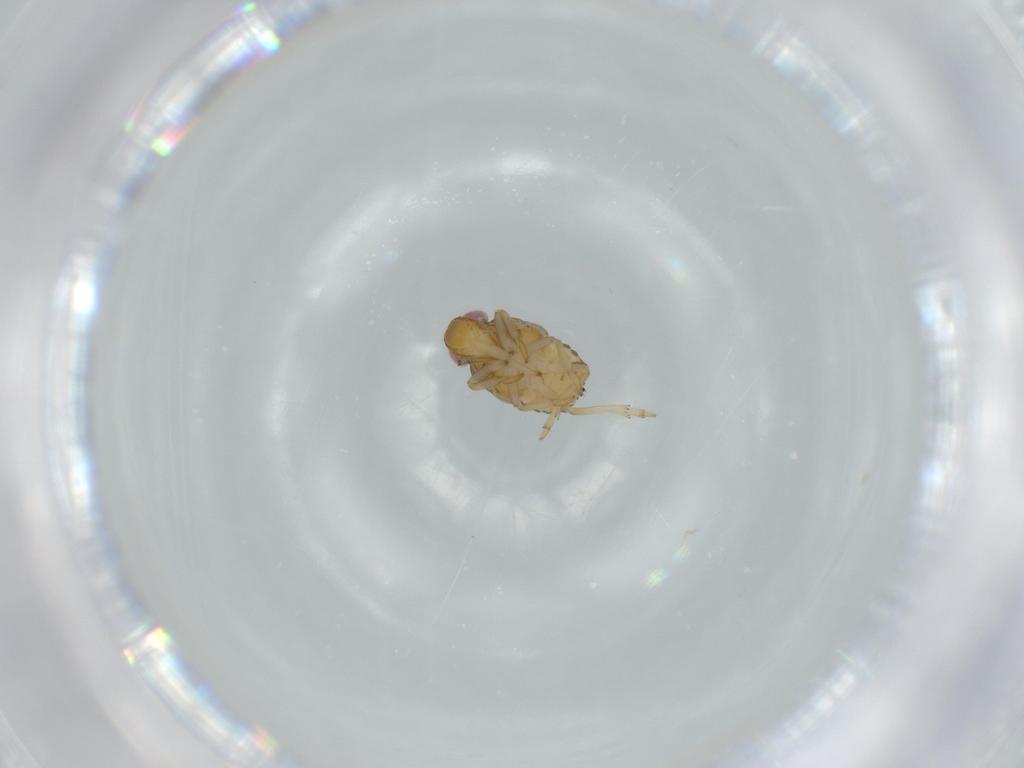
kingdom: Animalia
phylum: Arthropoda
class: Insecta
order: Hemiptera
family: Issidae
